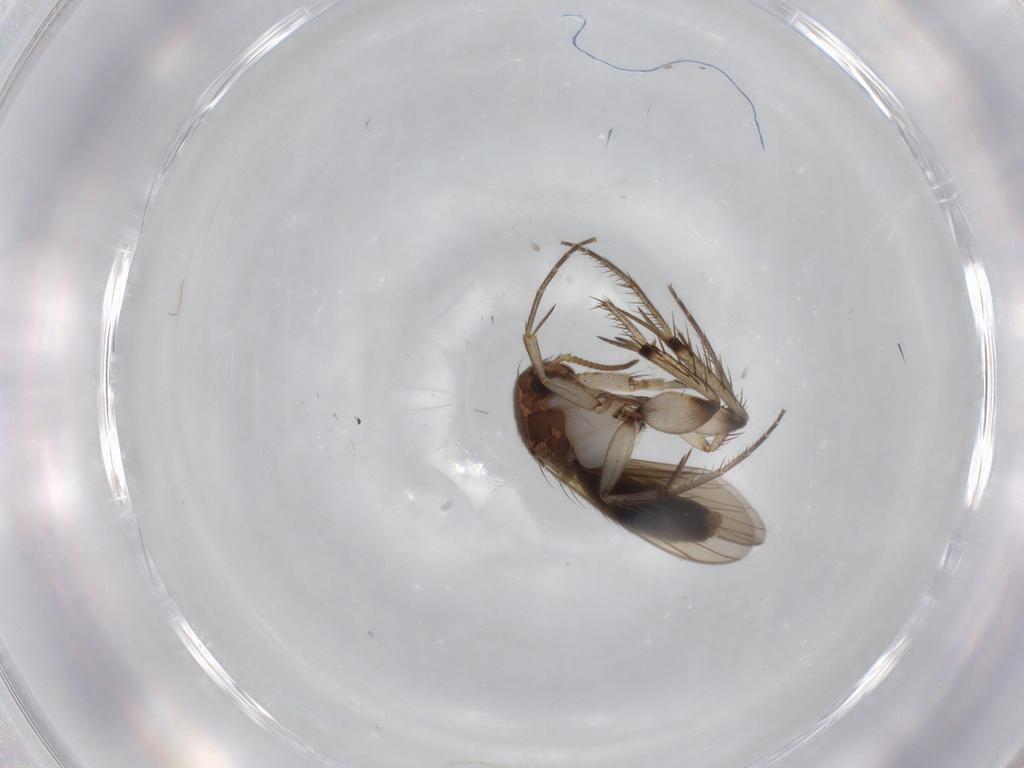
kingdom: Animalia
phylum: Arthropoda
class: Insecta
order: Diptera
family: Mycetophilidae
